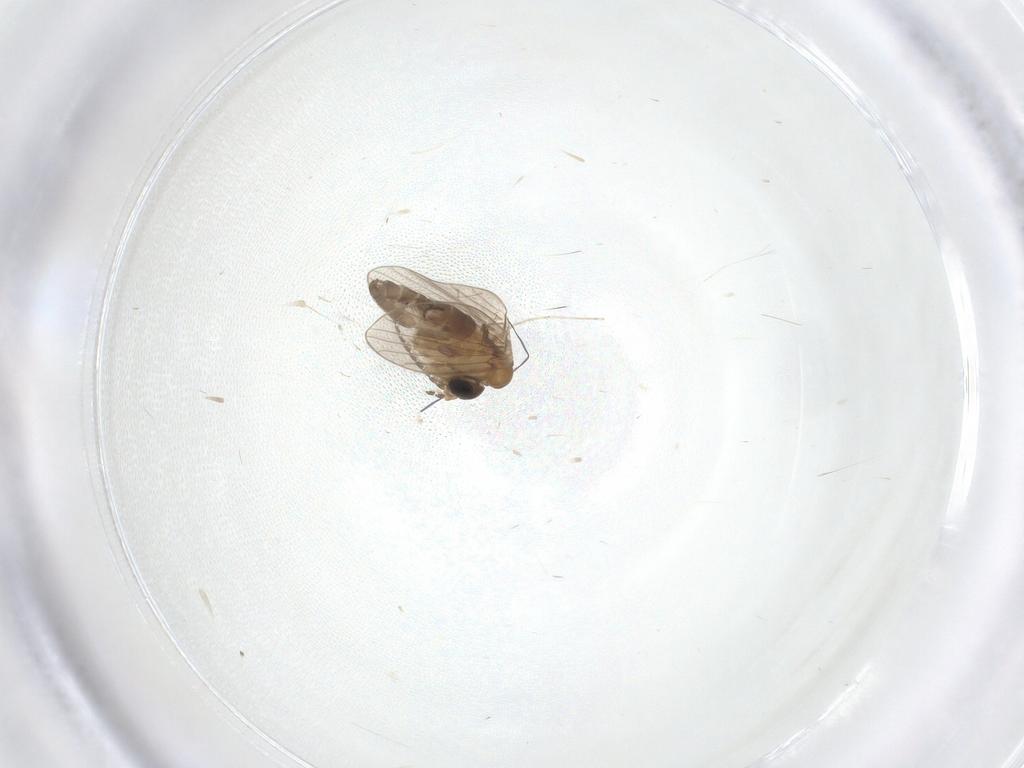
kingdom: Animalia
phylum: Arthropoda
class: Insecta
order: Diptera
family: Cecidomyiidae
